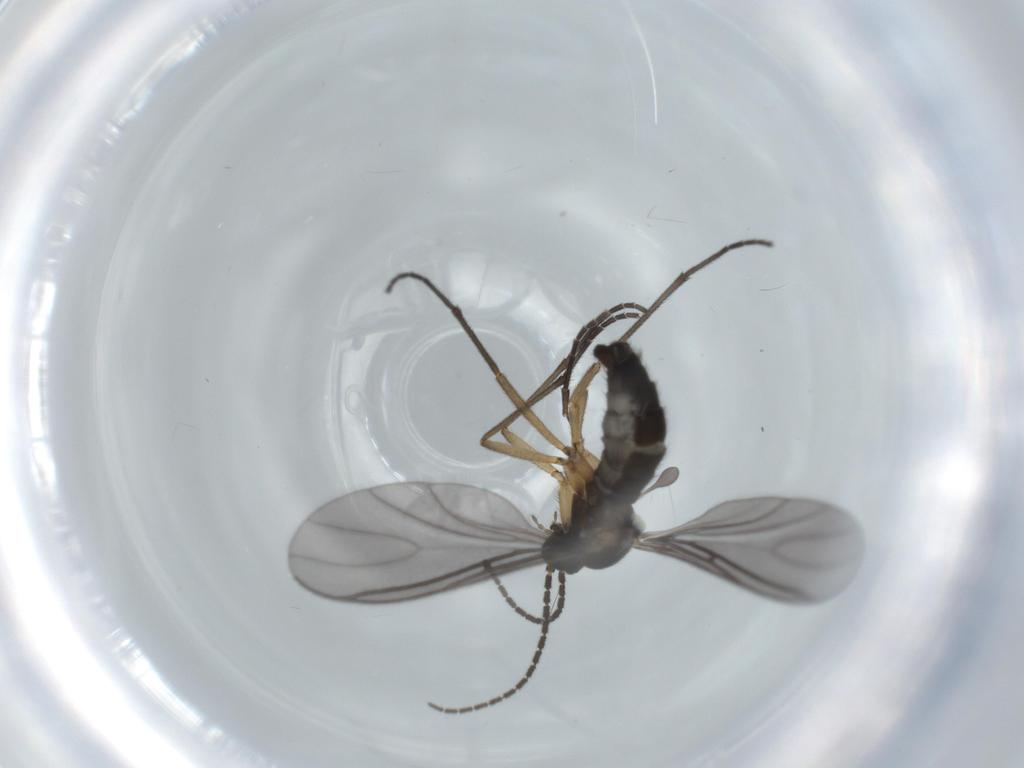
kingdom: Animalia
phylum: Arthropoda
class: Insecta
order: Diptera
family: Sciaridae
